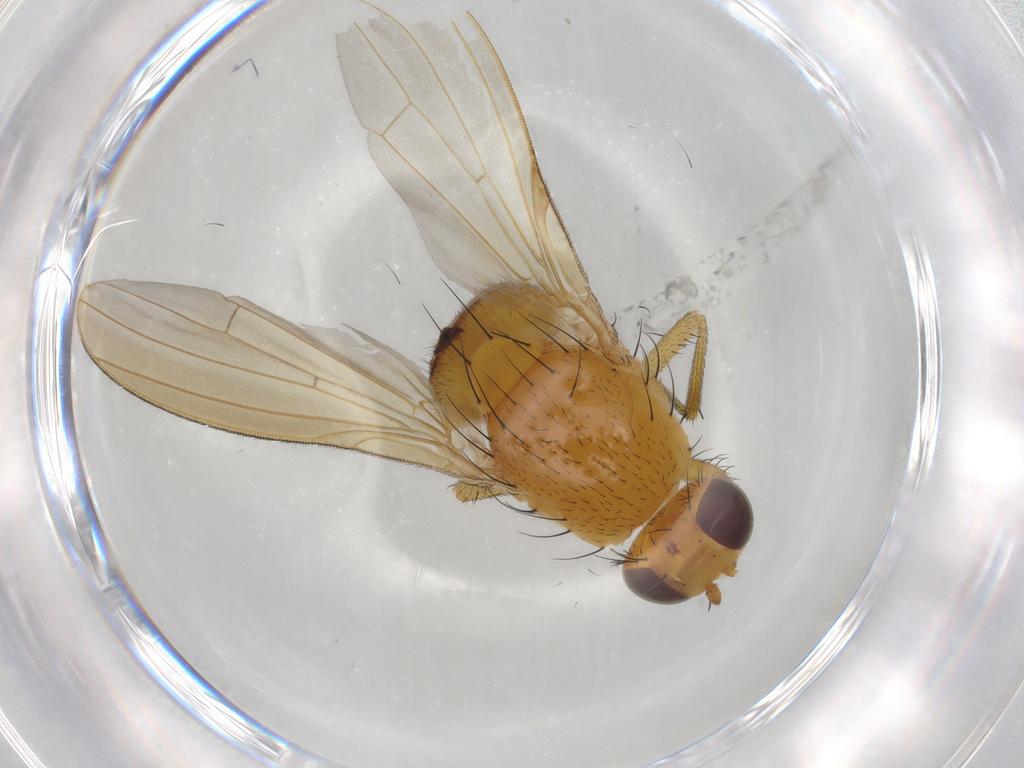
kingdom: Animalia
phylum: Arthropoda
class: Insecta
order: Diptera
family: Lauxaniidae
